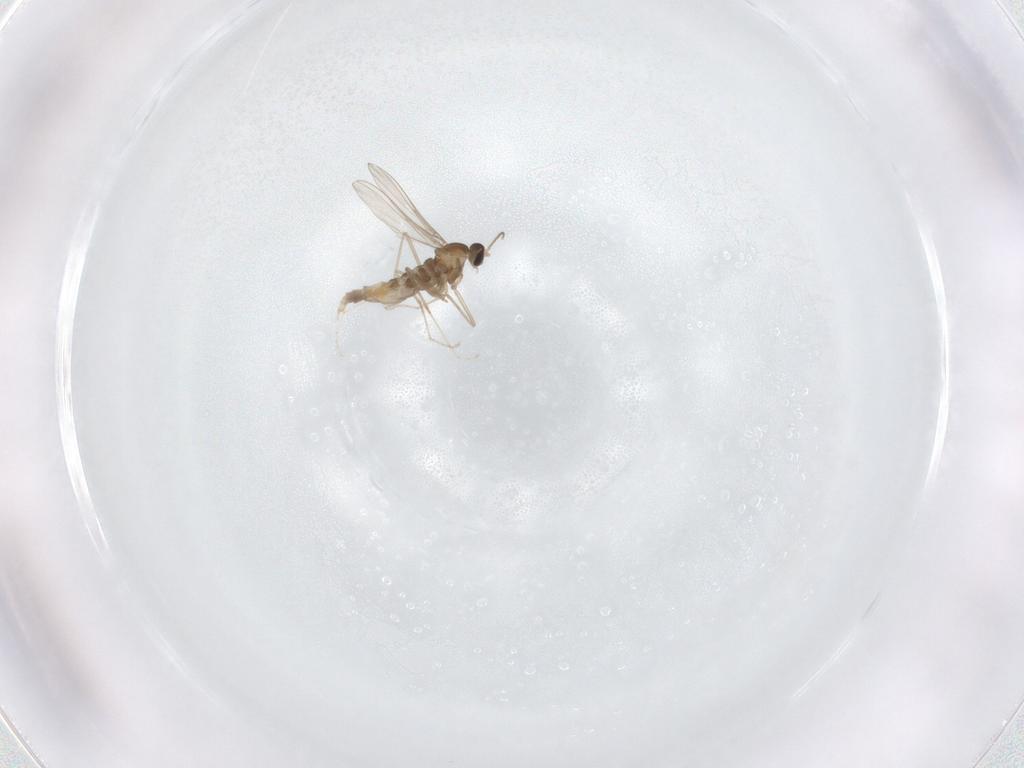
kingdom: Animalia
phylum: Arthropoda
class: Insecta
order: Diptera
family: Cecidomyiidae
